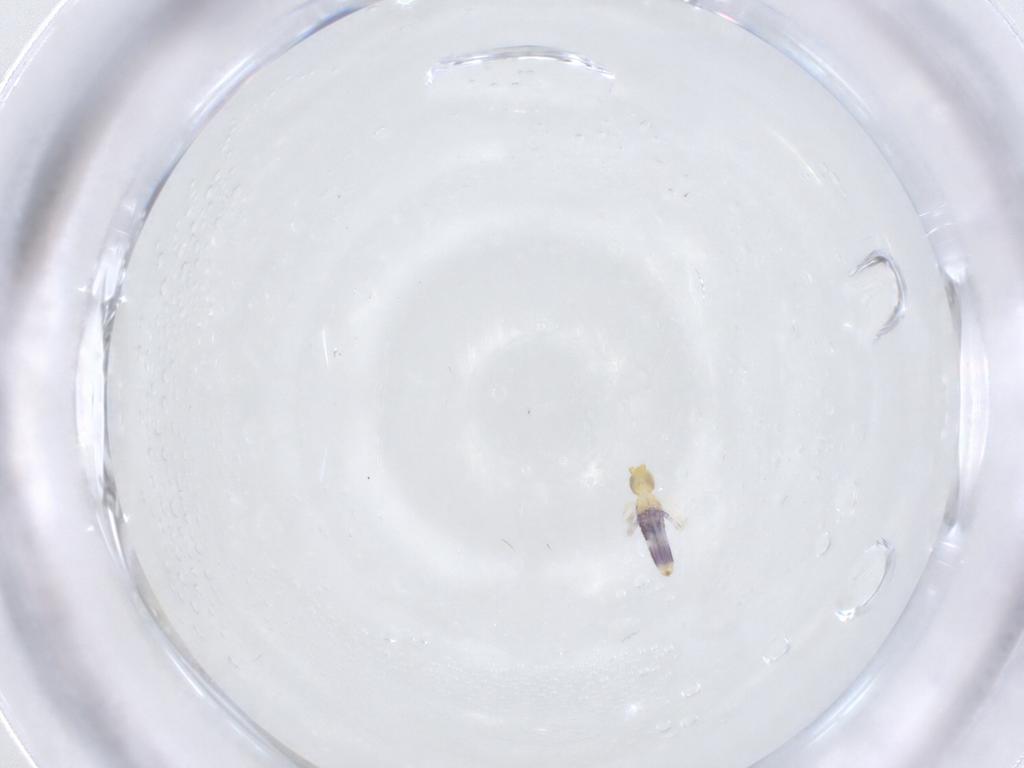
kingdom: Animalia
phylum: Arthropoda
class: Collembola
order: Entomobryomorpha
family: Entomobryidae
